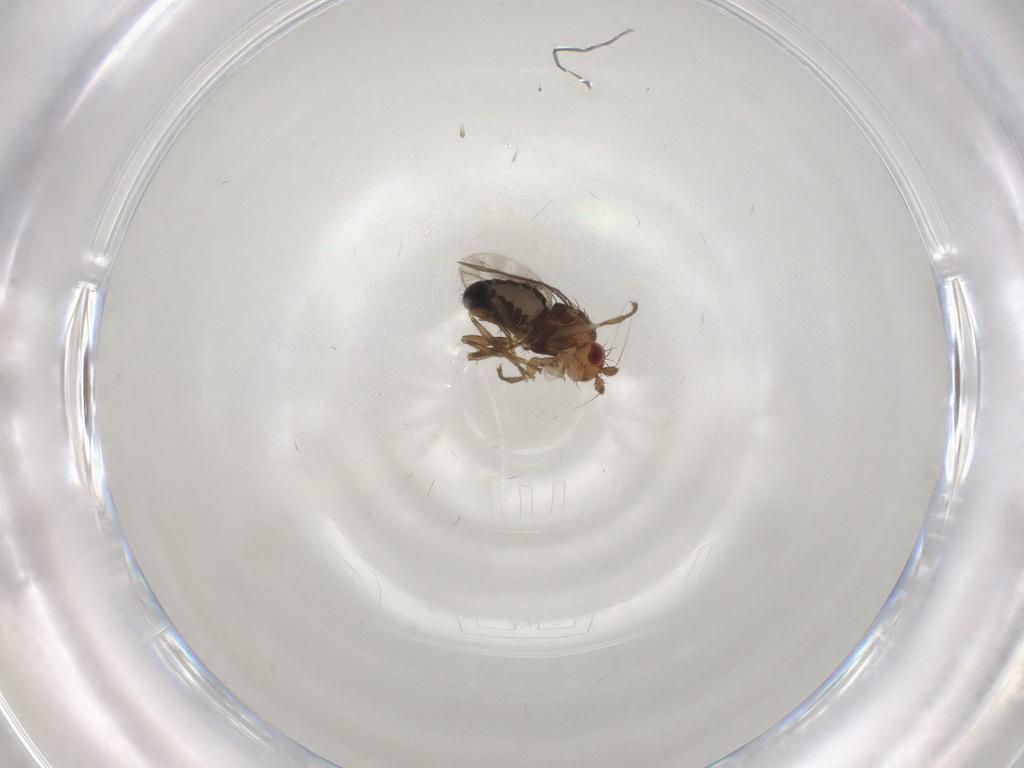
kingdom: Animalia
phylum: Arthropoda
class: Insecta
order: Diptera
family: Sphaeroceridae
